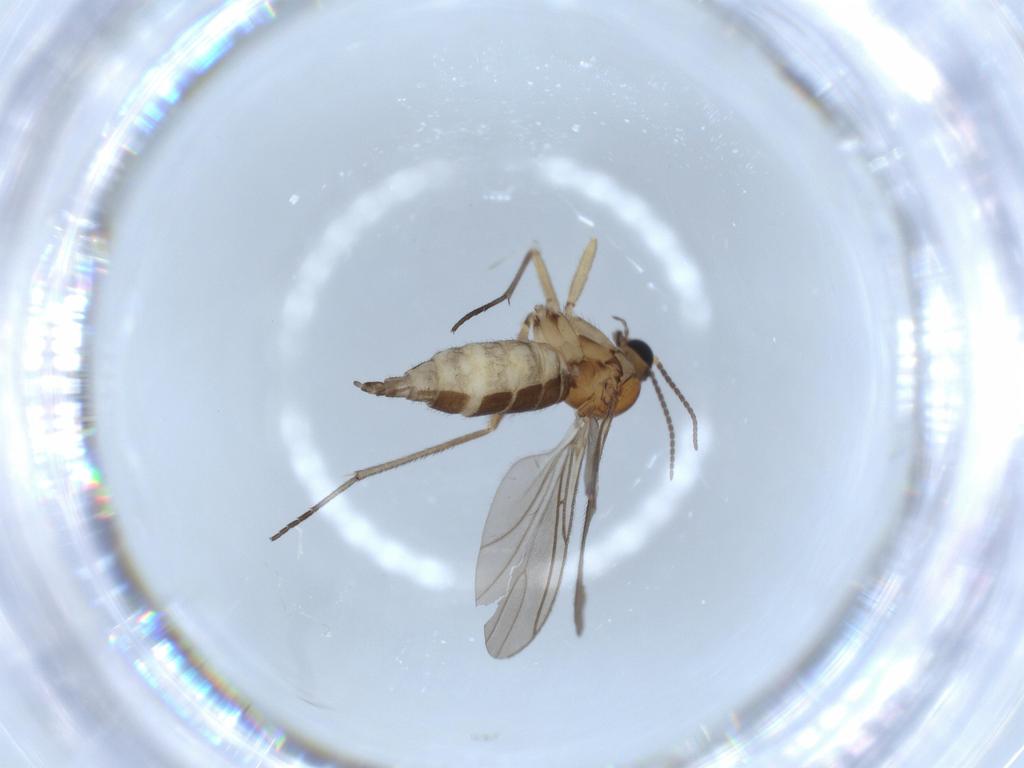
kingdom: Animalia
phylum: Arthropoda
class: Insecta
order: Diptera
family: Sciaridae
